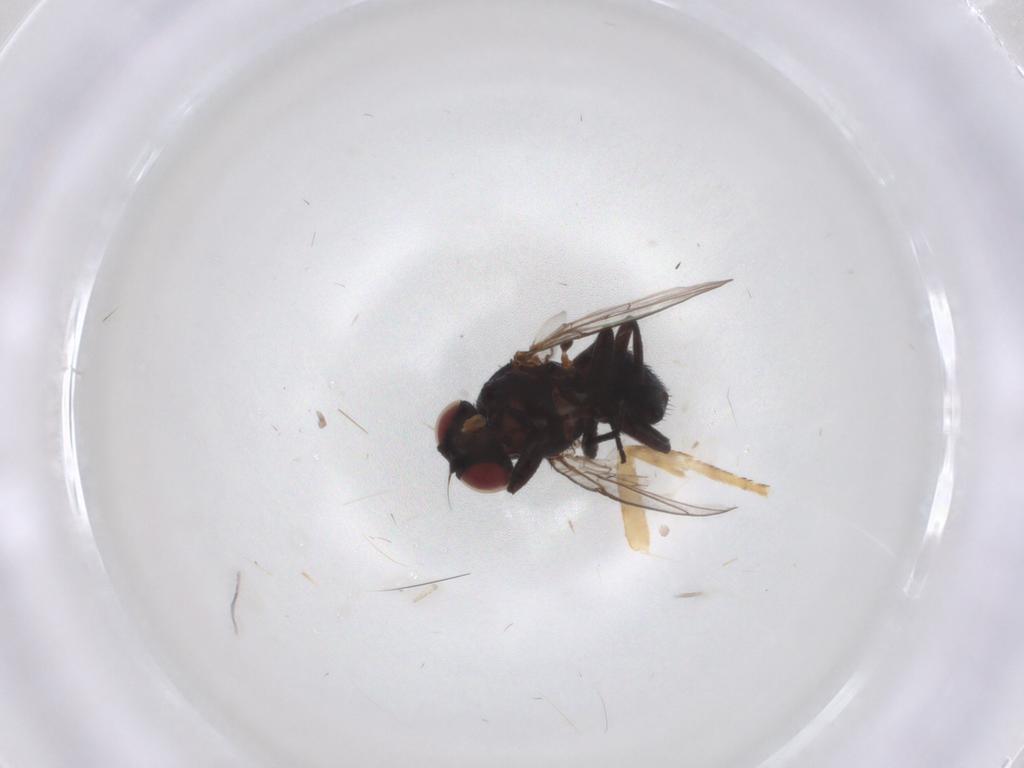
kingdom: Animalia
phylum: Arthropoda
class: Insecta
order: Diptera
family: Agromyzidae
